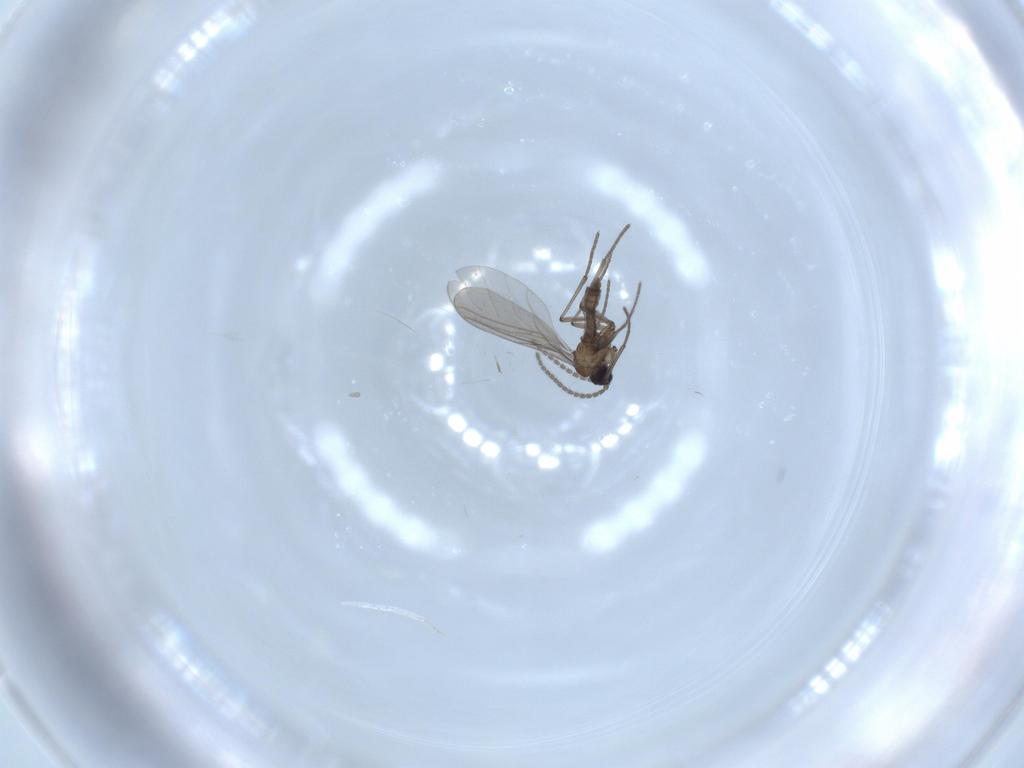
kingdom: Animalia
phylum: Arthropoda
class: Insecta
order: Diptera
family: Sciaridae
